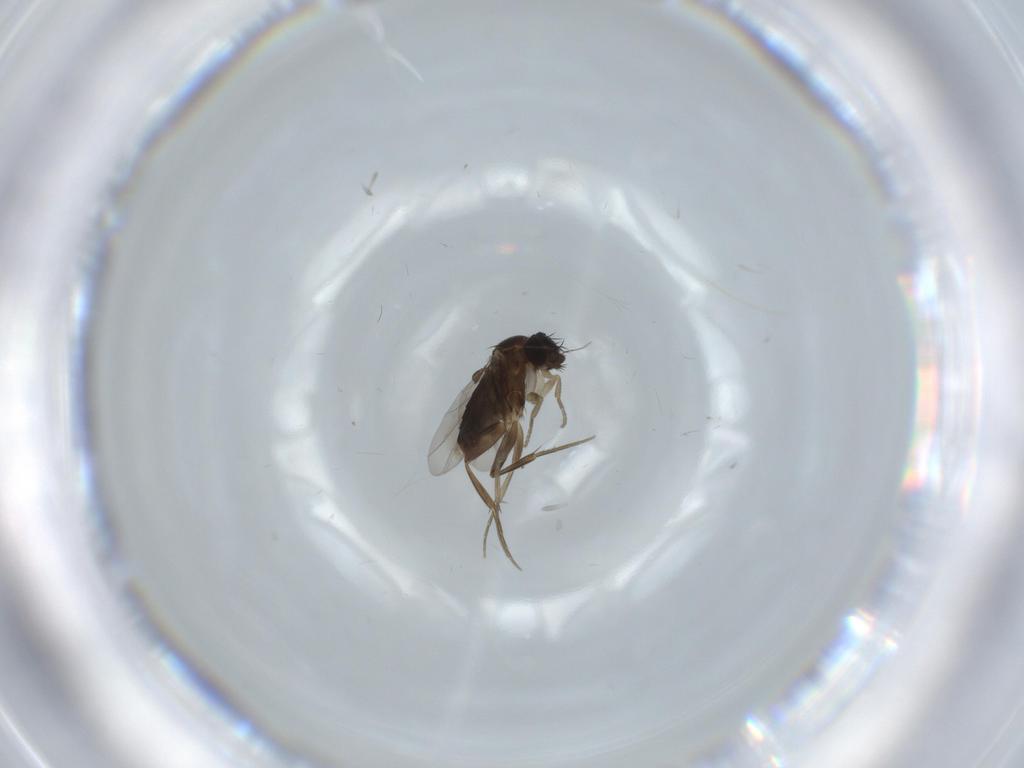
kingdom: Animalia
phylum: Arthropoda
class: Insecta
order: Diptera
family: Phoridae
